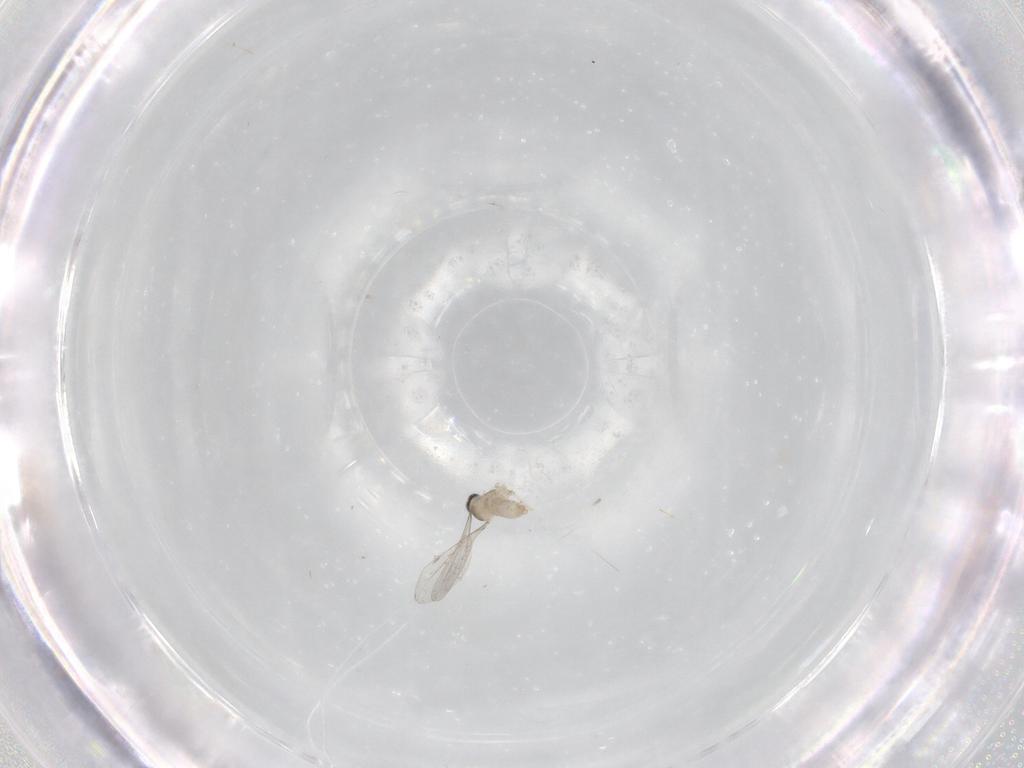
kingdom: Animalia
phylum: Arthropoda
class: Insecta
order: Diptera
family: Cecidomyiidae
